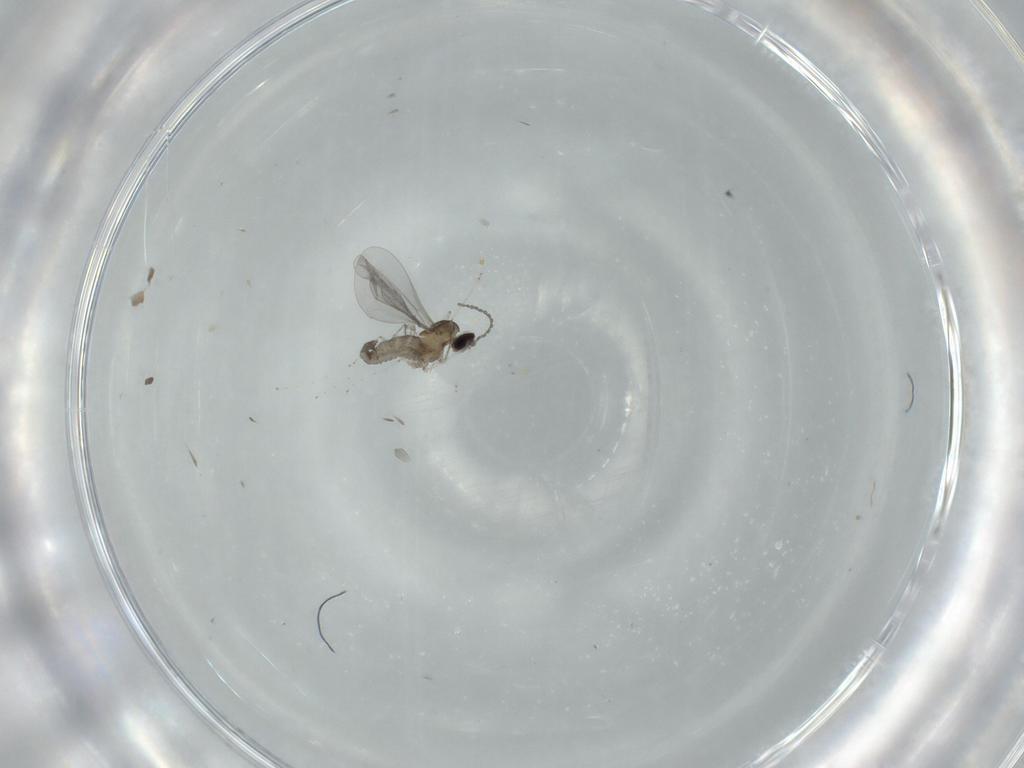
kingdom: Animalia
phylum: Arthropoda
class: Insecta
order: Diptera
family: Cecidomyiidae
